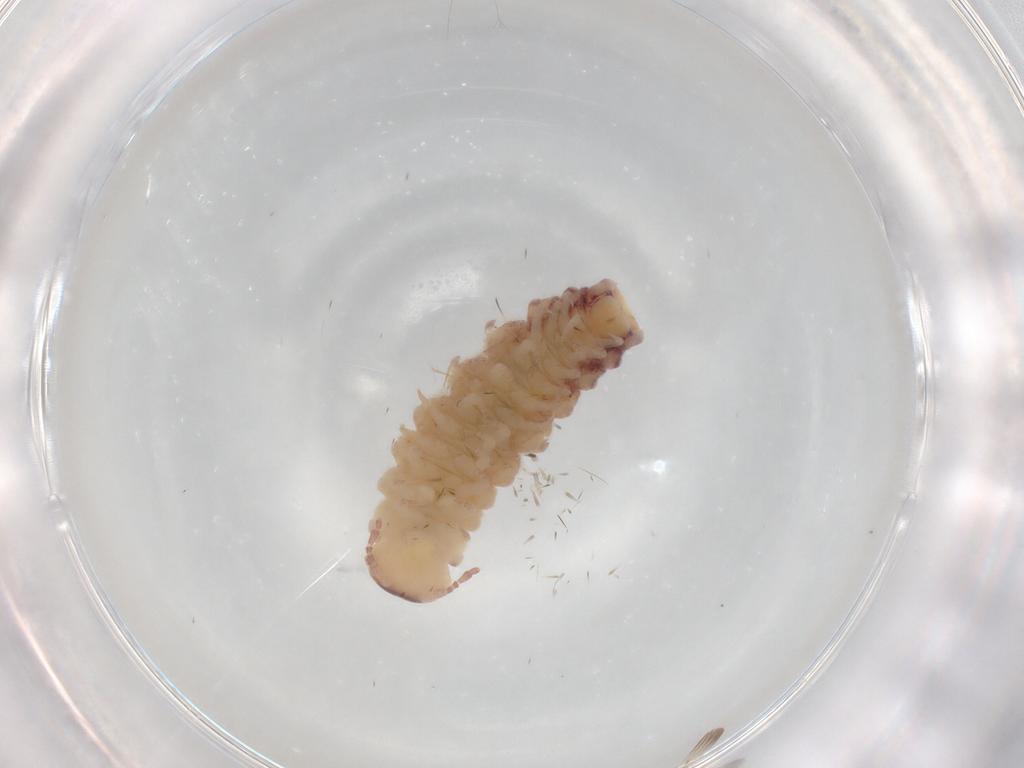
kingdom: Animalia
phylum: Arthropoda
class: Diplopoda
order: Polyxenida
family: Polyxenidae
